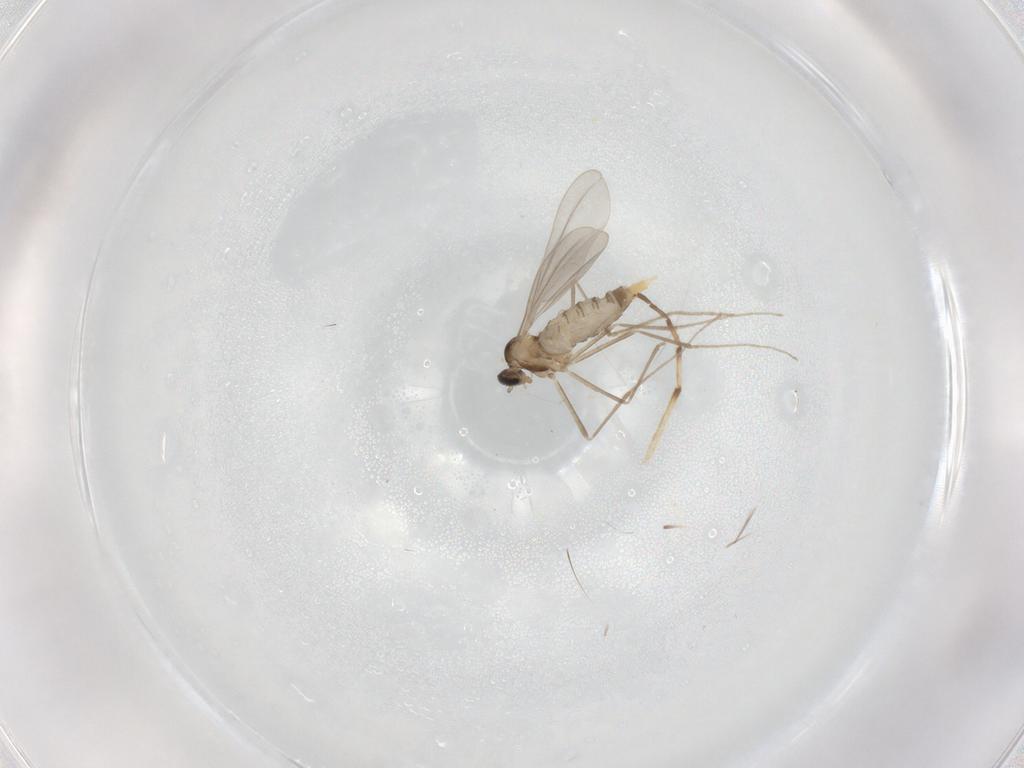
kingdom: Animalia
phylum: Arthropoda
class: Insecta
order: Diptera
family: Cecidomyiidae
